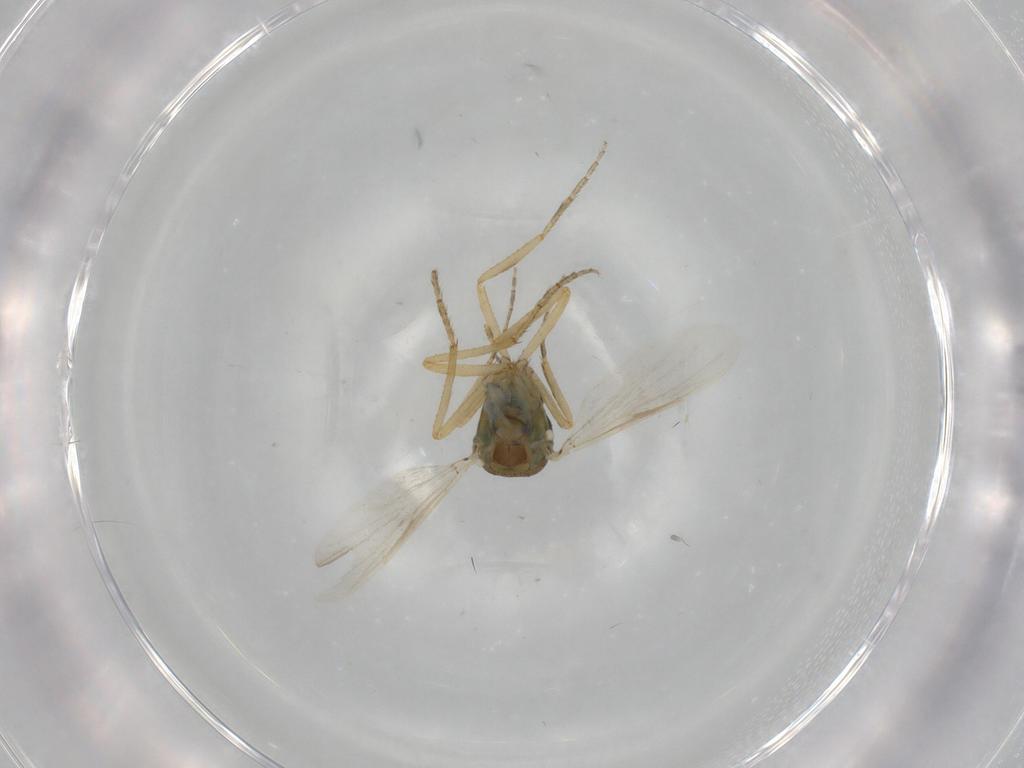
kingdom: Animalia
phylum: Arthropoda
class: Insecta
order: Diptera
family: Ceratopogonidae
